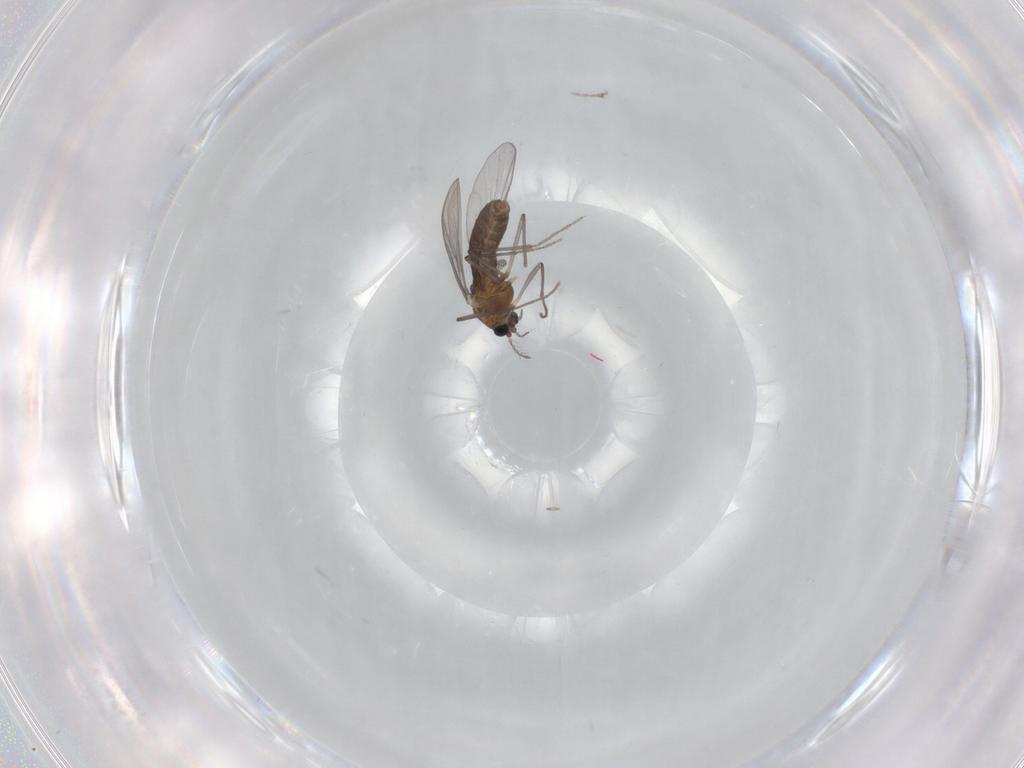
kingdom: Animalia
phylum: Arthropoda
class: Insecta
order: Diptera
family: Chironomidae
